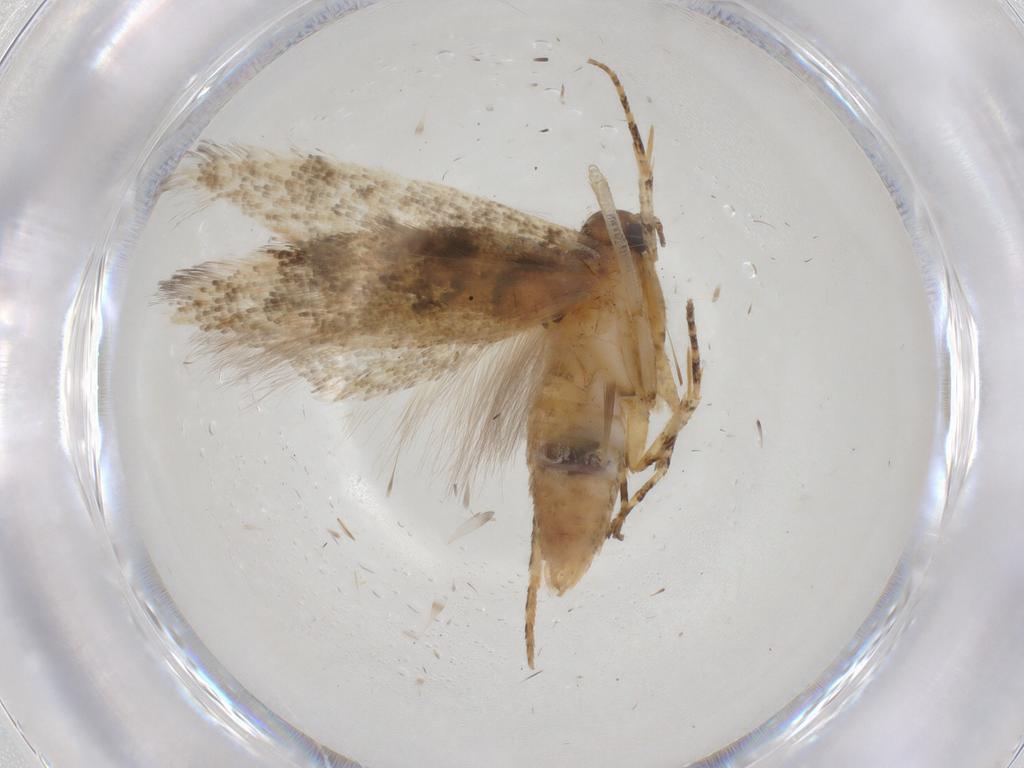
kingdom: Animalia
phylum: Arthropoda
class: Insecta
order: Lepidoptera
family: Gelechiidae
